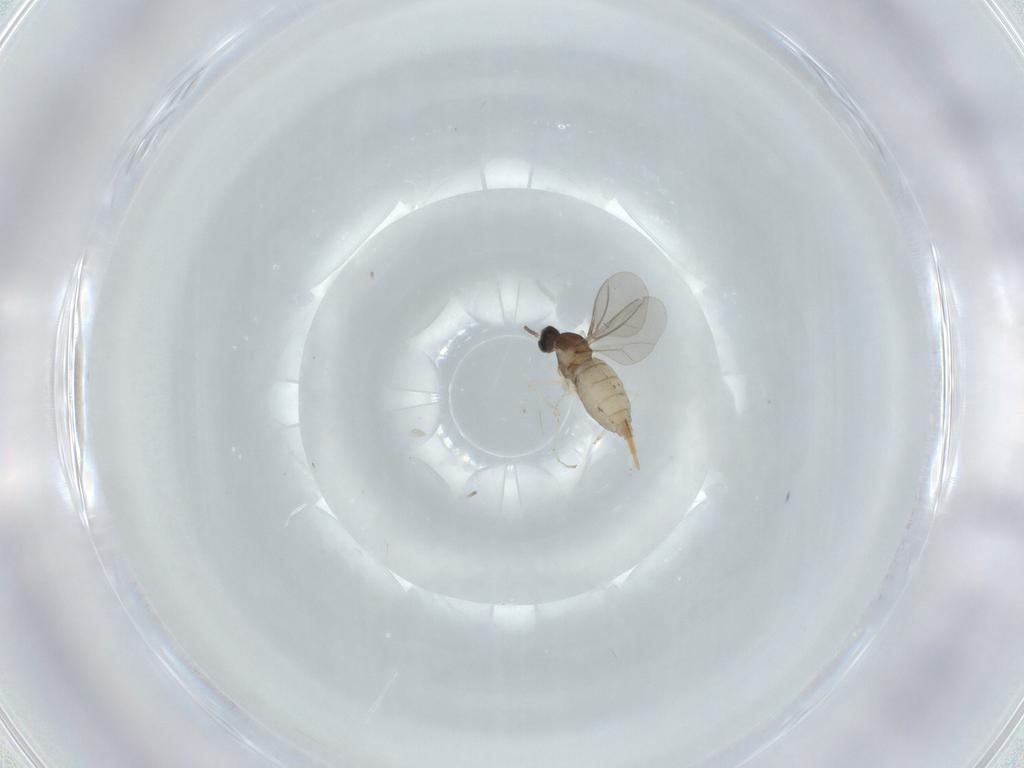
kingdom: Animalia
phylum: Arthropoda
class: Insecta
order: Diptera
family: Cecidomyiidae
